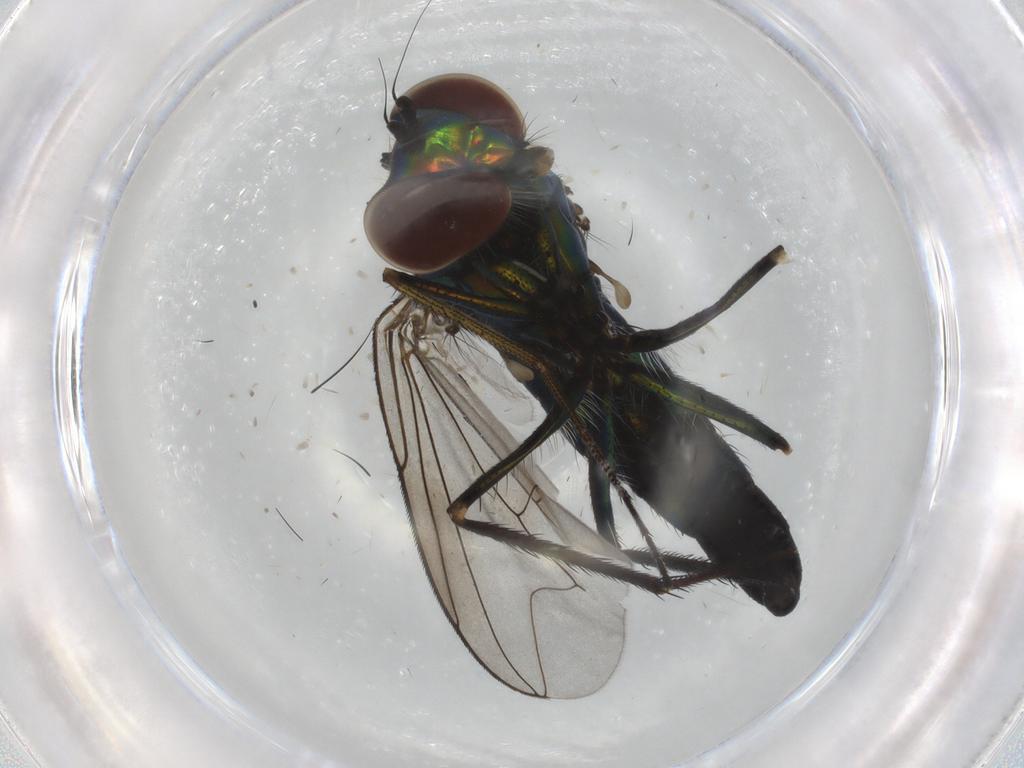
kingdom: Animalia
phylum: Arthropoda
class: Insecta
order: Diptera
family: Dolichopodidae
